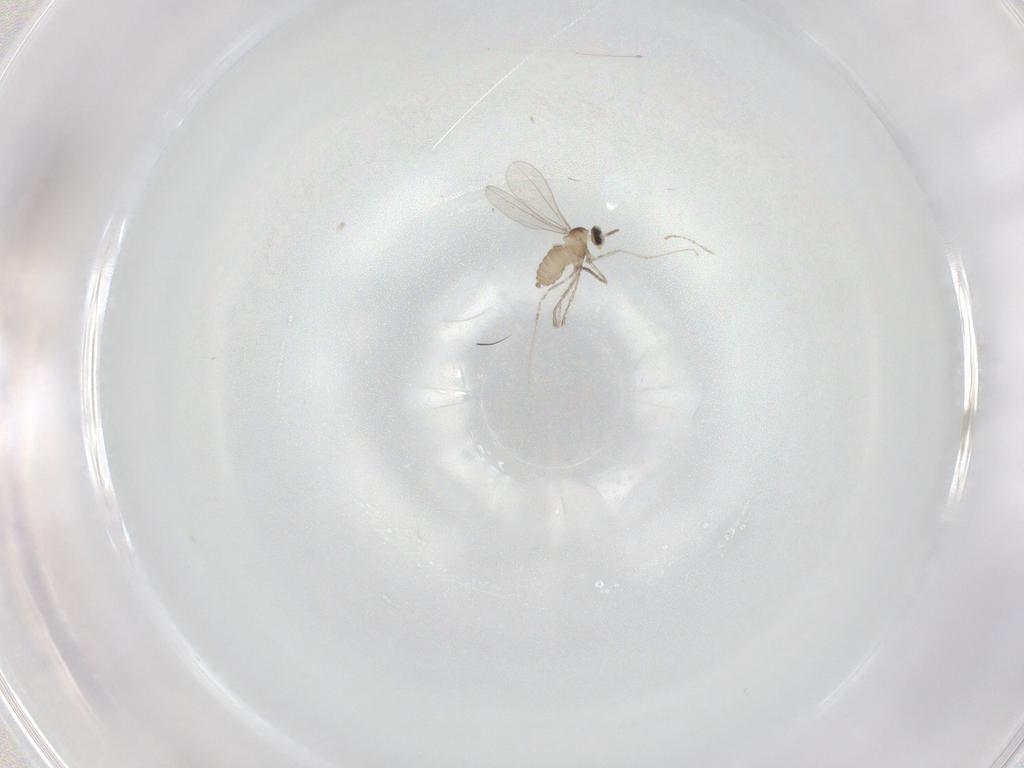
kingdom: Animalia
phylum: Arthropoda
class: Insecta
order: Diptera
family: Cecidomyiidae
